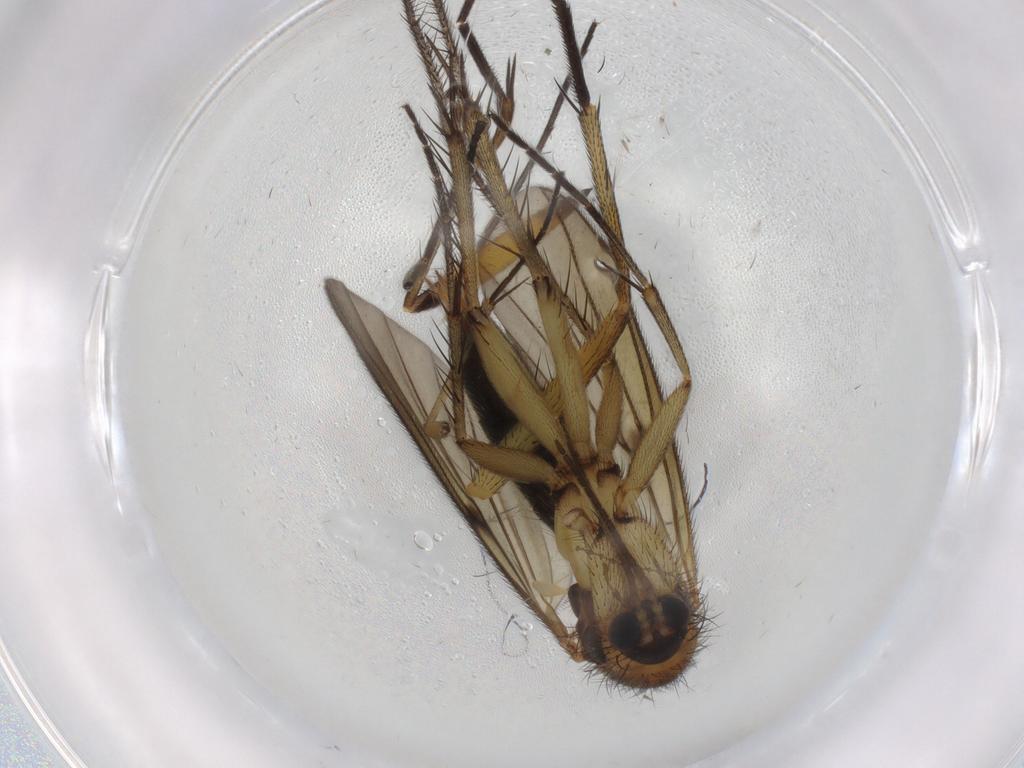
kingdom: Animalia
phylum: Arthropoda
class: Insecta
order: Diptera
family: Muscidae
